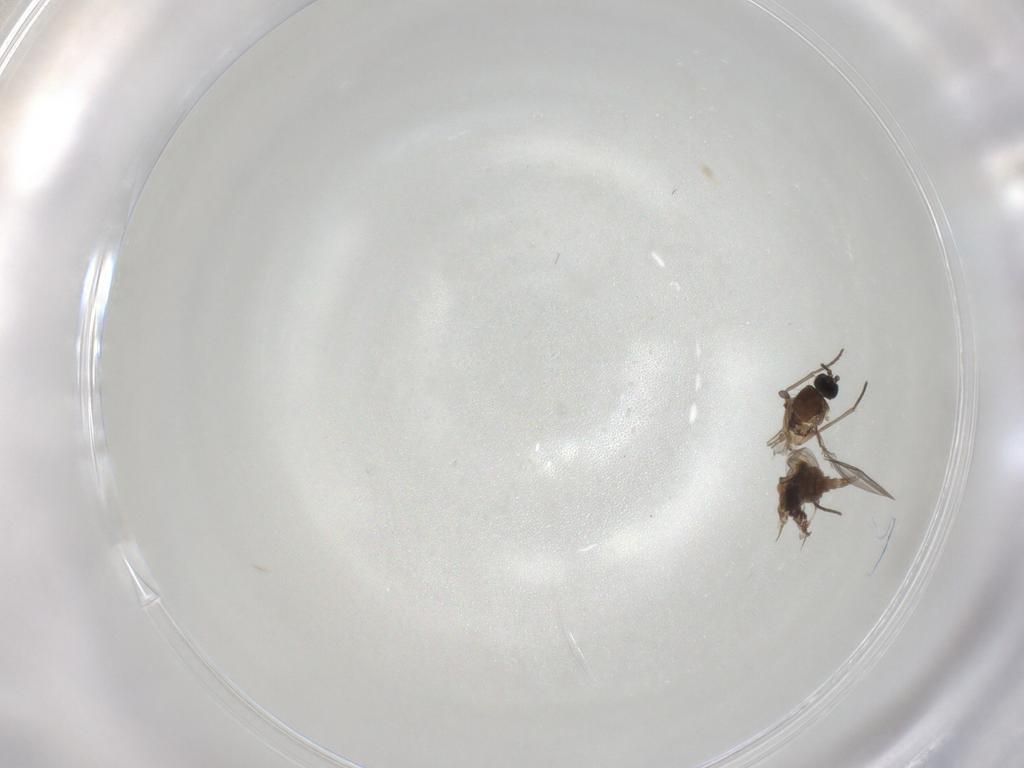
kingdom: Animalia
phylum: Arthropoda
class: Insecta
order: Diptera
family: Sciaridae
